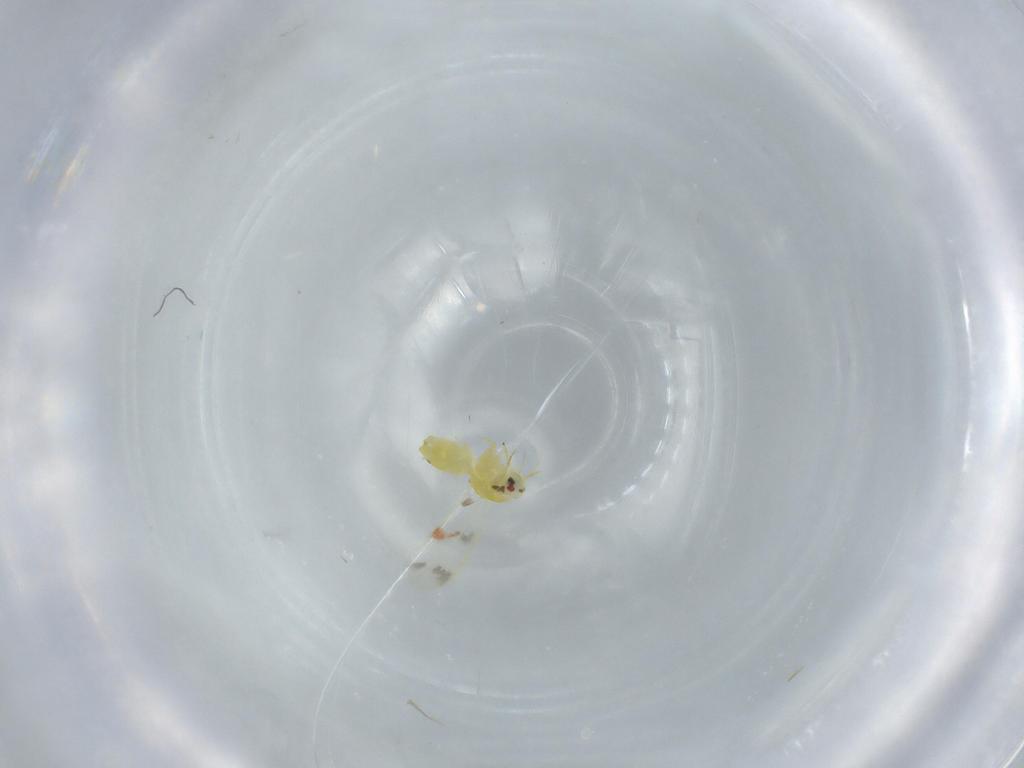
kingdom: Animalia
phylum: Arthropoda
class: Insecta
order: Hemiptera
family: Aleyrodidae
